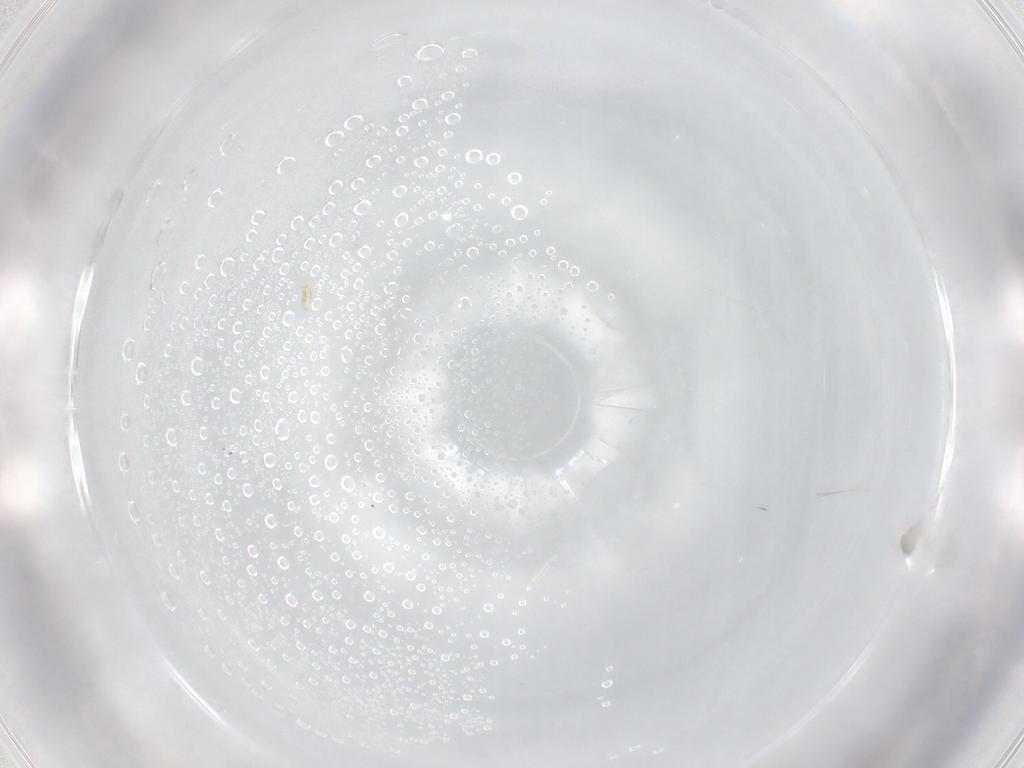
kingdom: Animalia
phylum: Arthropoda
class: Arachnida
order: Trombidiformes
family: Eupodidae
